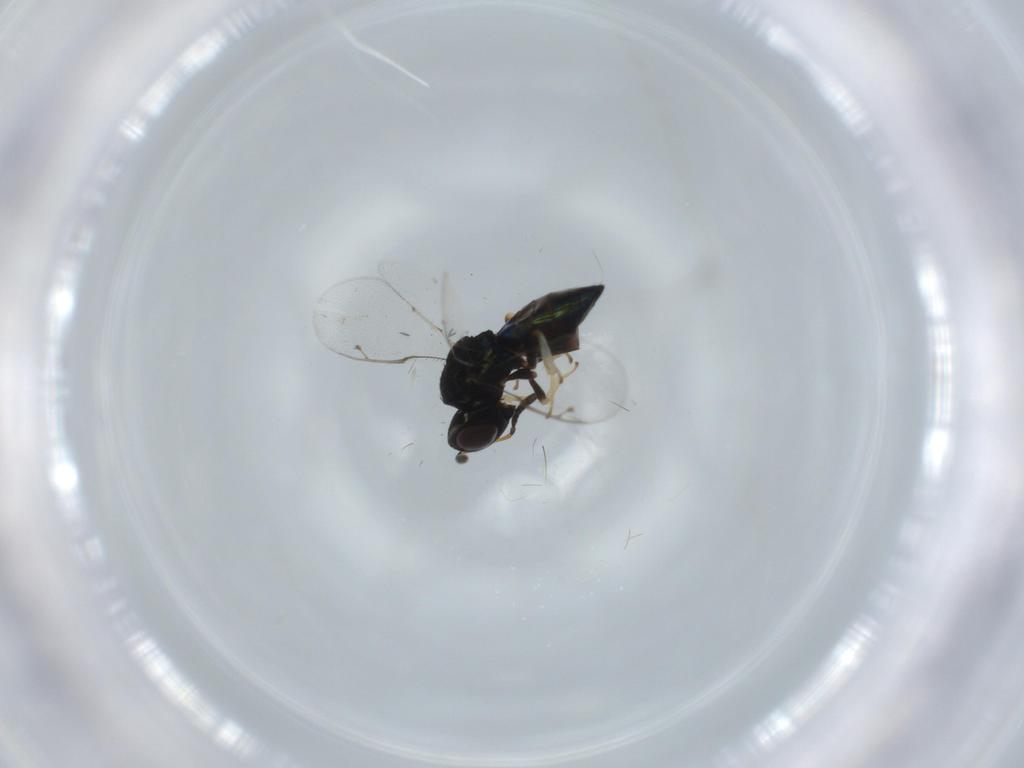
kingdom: Animalia
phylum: Arthropoda
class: Insecta
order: Hymenoptera
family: Pteromalidae
